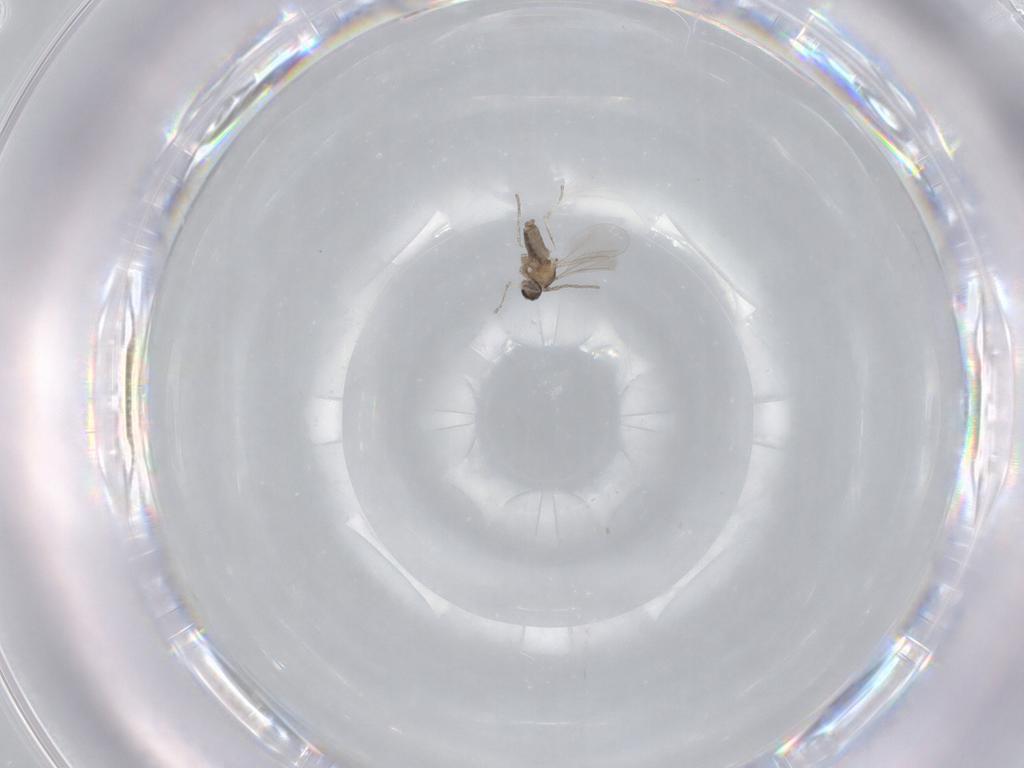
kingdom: Animalia
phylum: Arthropoda
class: Insecta
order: Diptera
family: Cecidomyiidae
